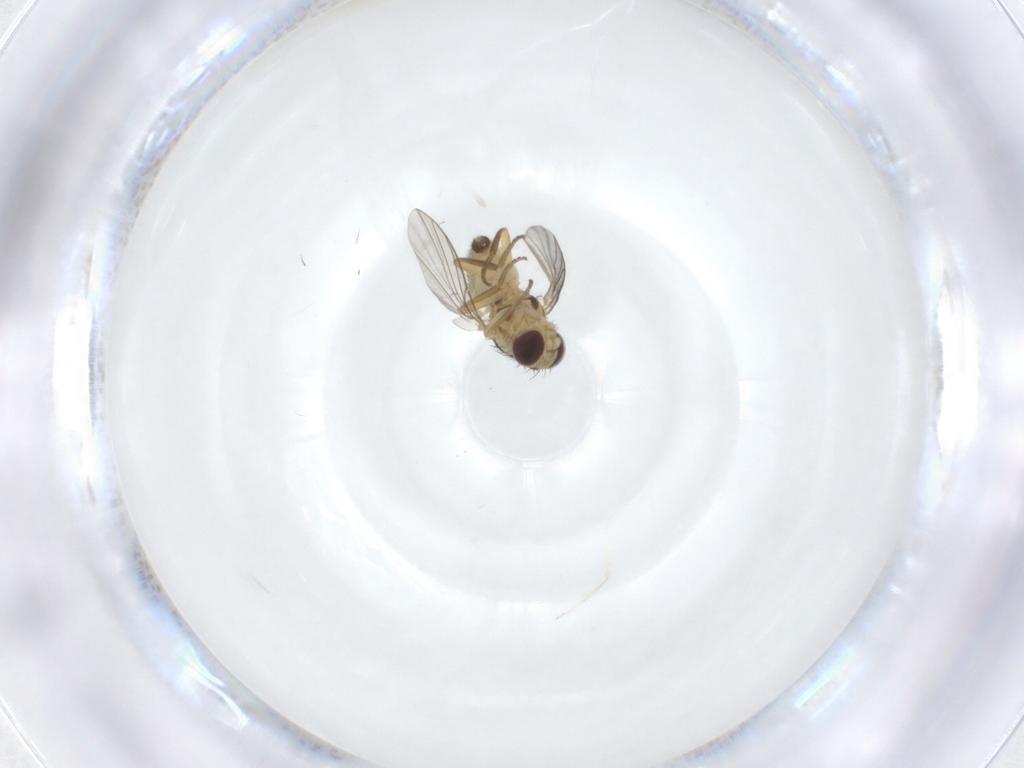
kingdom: Animalia
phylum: Arthropoda
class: Insecta
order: Diptera
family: Agromyzidae
